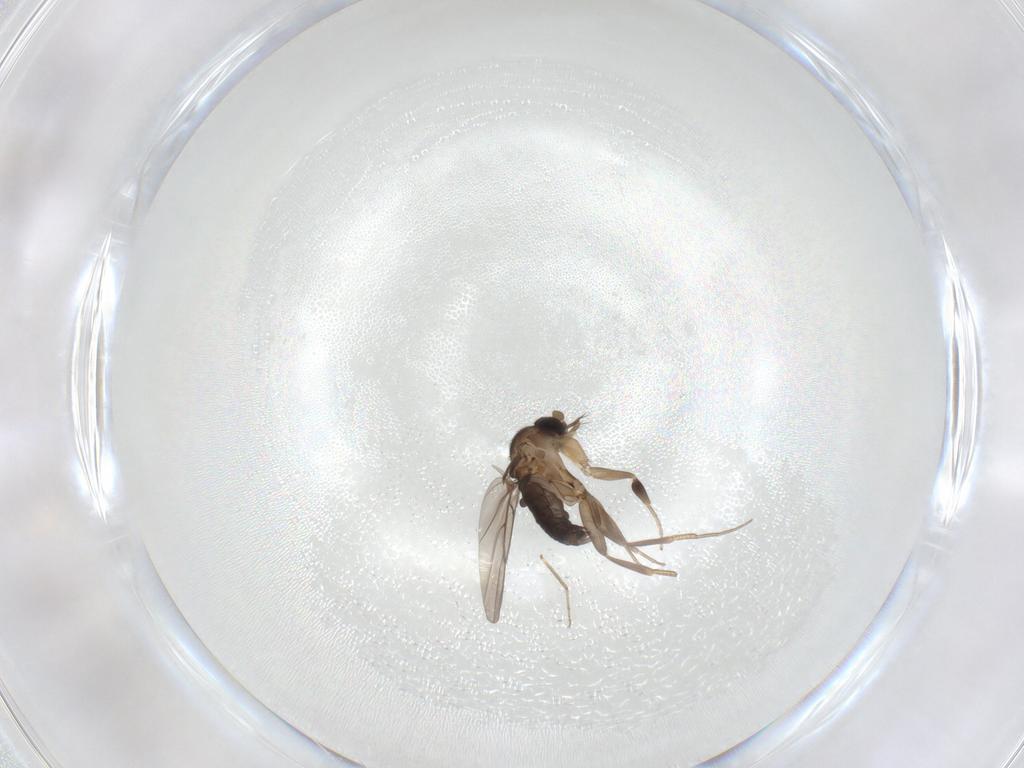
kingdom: Animalia
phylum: Arthropoda
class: Insecta
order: Diptera
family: Phoridae
